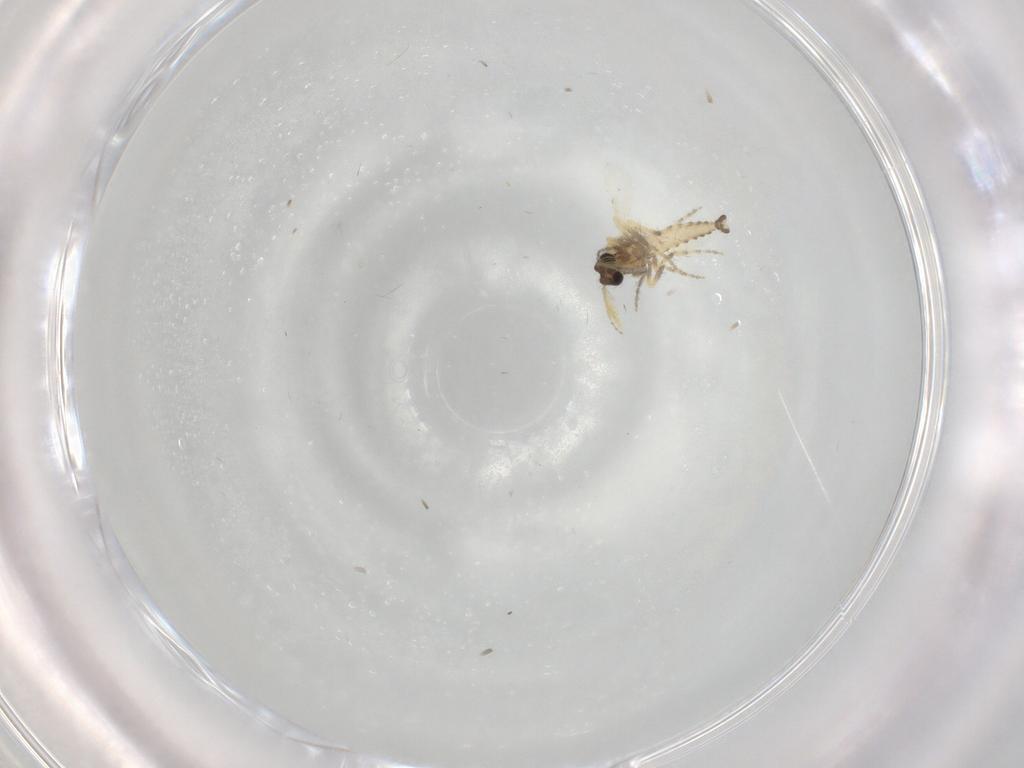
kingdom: Animalia
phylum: Arthropoda
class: Insecta
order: Diptera
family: Ceratopogonidae
